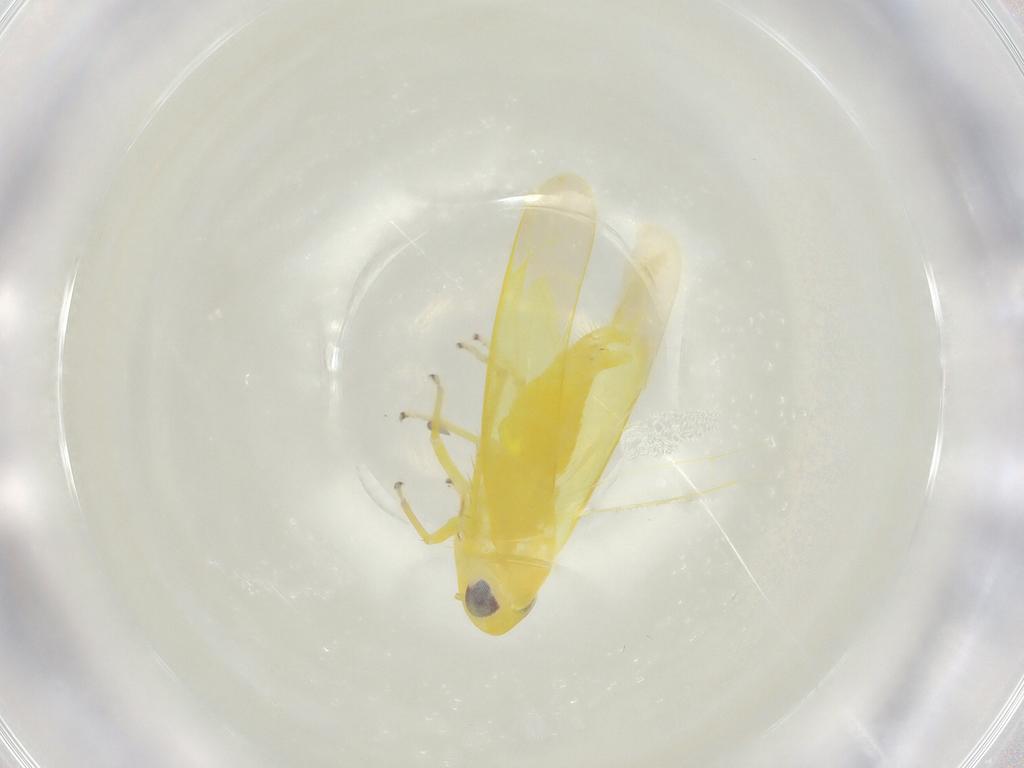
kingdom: Animalia
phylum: Arthropoda
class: Insecta
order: Hemiptera
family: Cicadellidae
